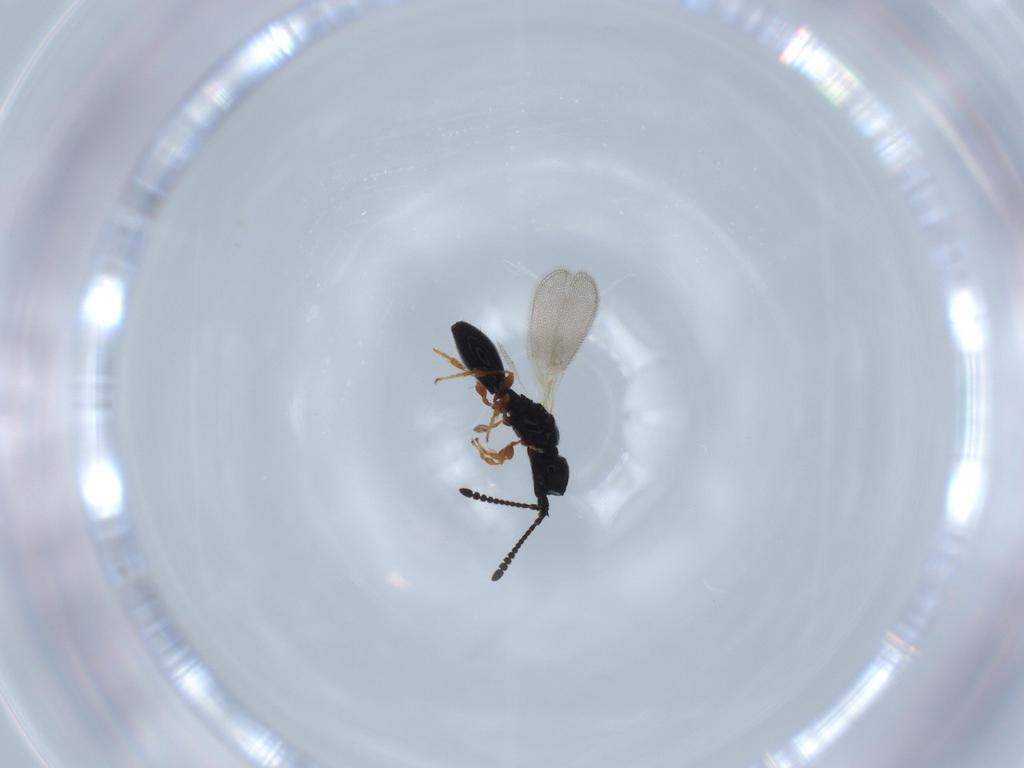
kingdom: Animalia
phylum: Arthropoda
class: Insecta
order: Hymenoptera
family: Diapriidae
